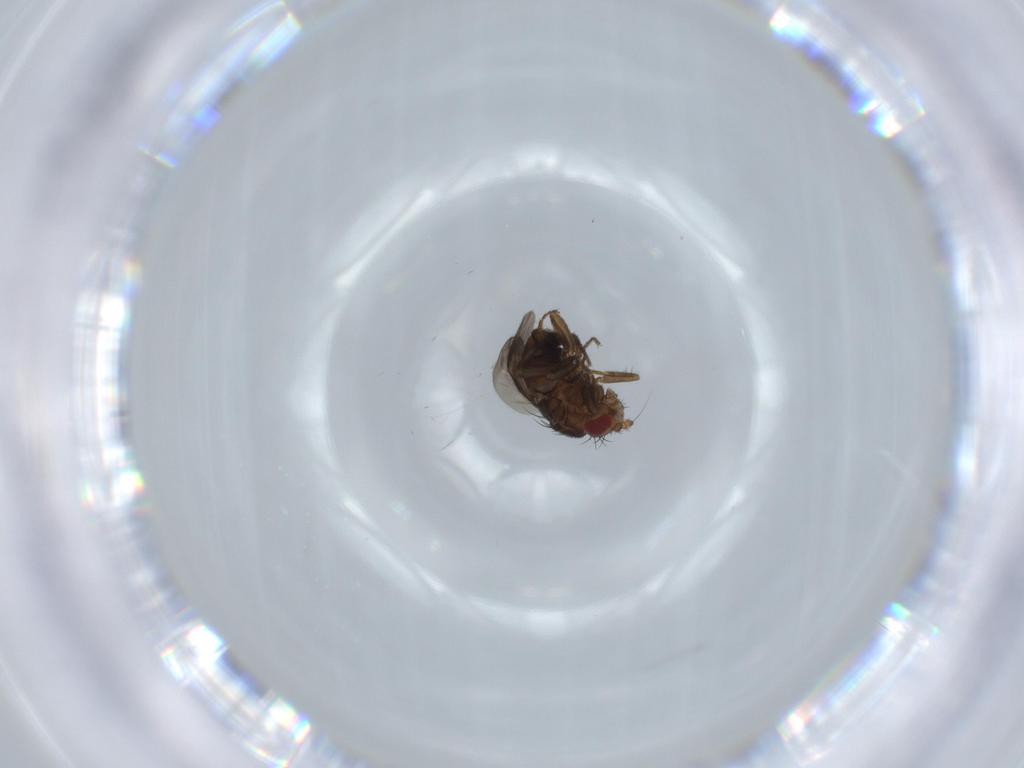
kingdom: Animalia
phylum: Arthropoda
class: Insecta
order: Diptera
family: Sphaeroceridae
